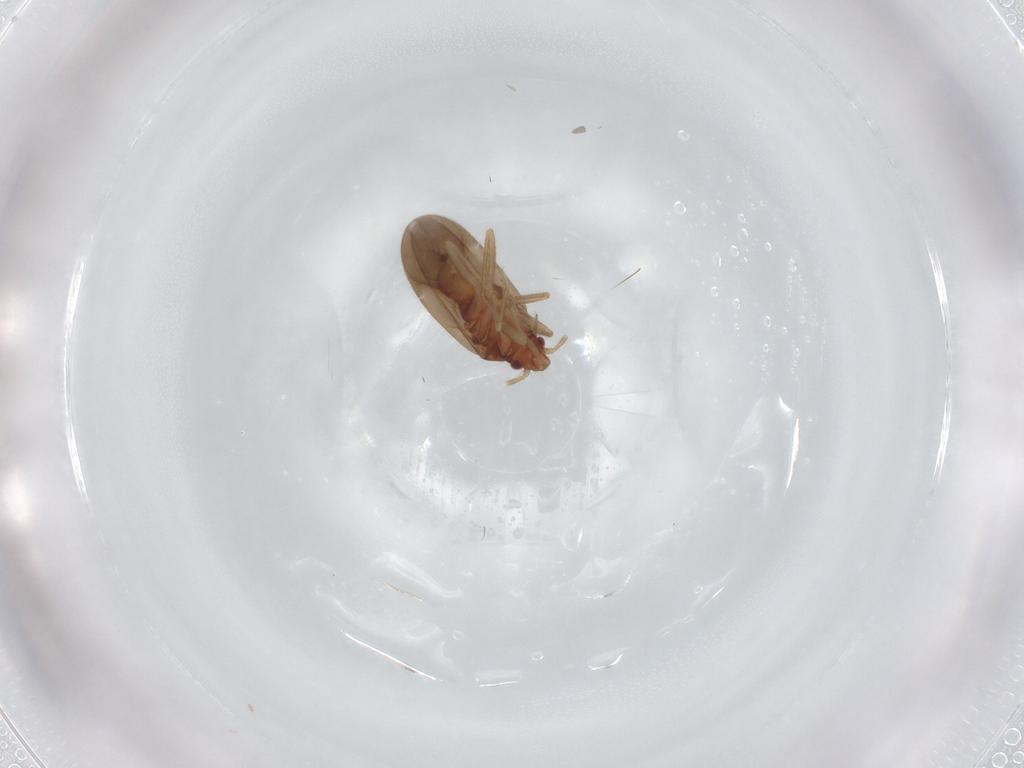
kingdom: Animalia
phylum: Arthropoda
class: Insecta
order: Hemiptera
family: Ceratocombidae
